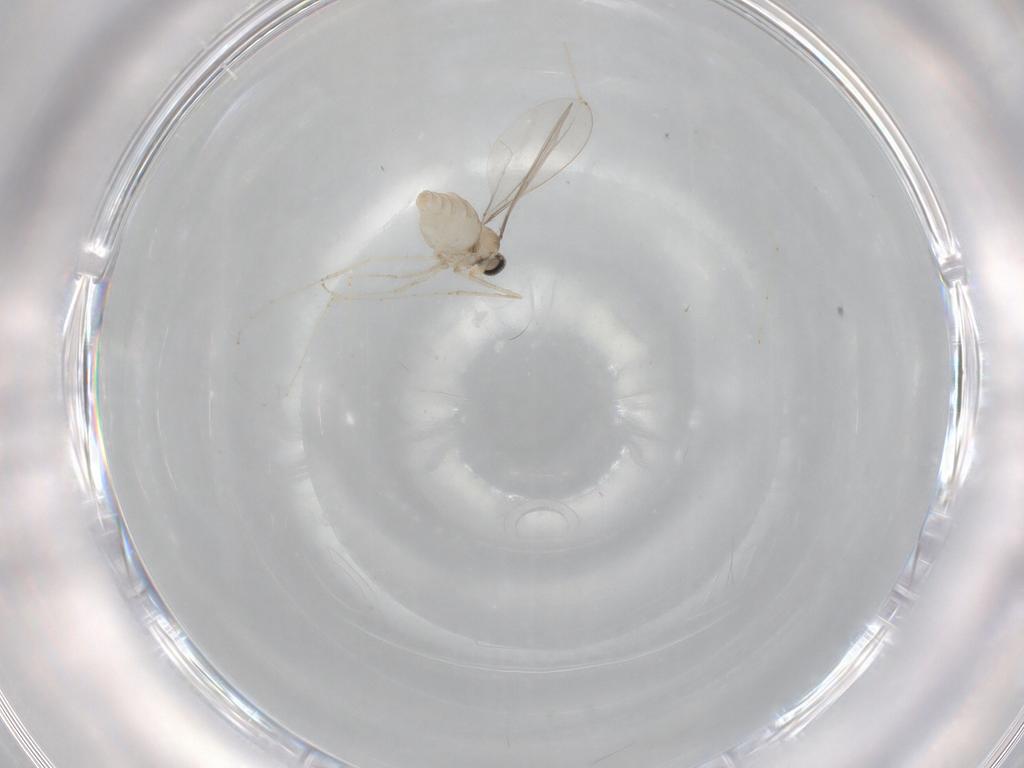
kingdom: Animalia
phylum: Arthropoda
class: Insecta
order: Diptera
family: Cecidomyiidae
